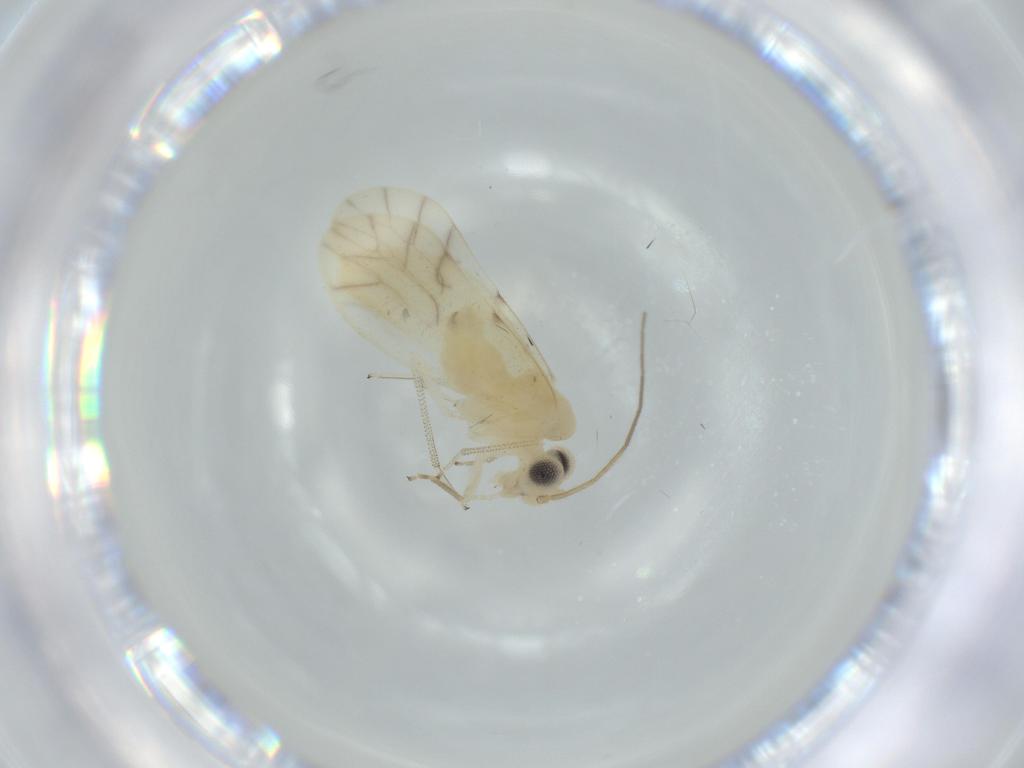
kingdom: Animalia
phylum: Arthropoda
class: Insecta
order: Psocodea
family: Caeciliusidae
